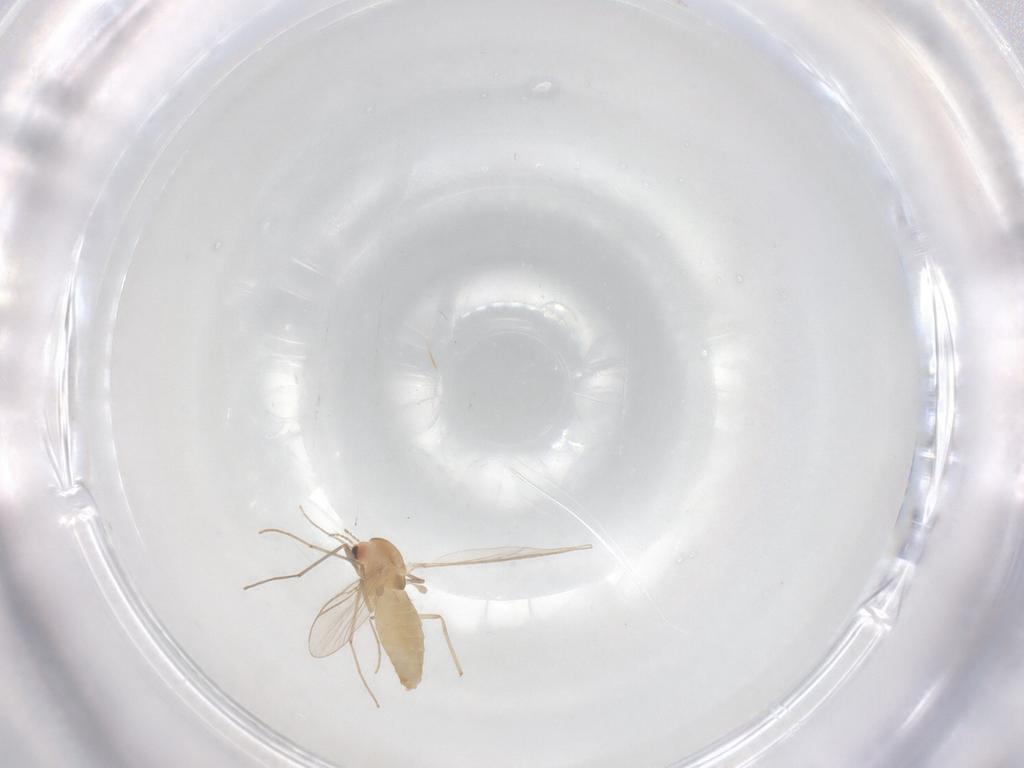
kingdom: Animalia
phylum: Arthropoda
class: Insecta
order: Diptera
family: Chironomidae
